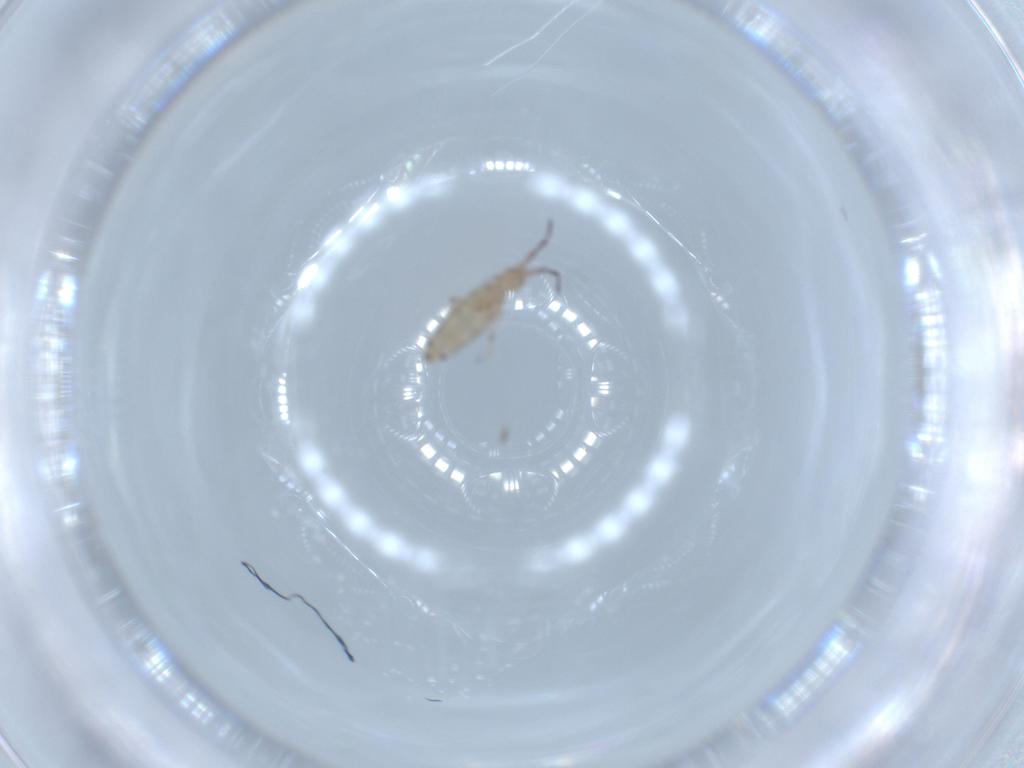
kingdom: Animalia
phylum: Arthropoda
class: Collembola
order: Entomobryomorpha
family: Entomobryidae
